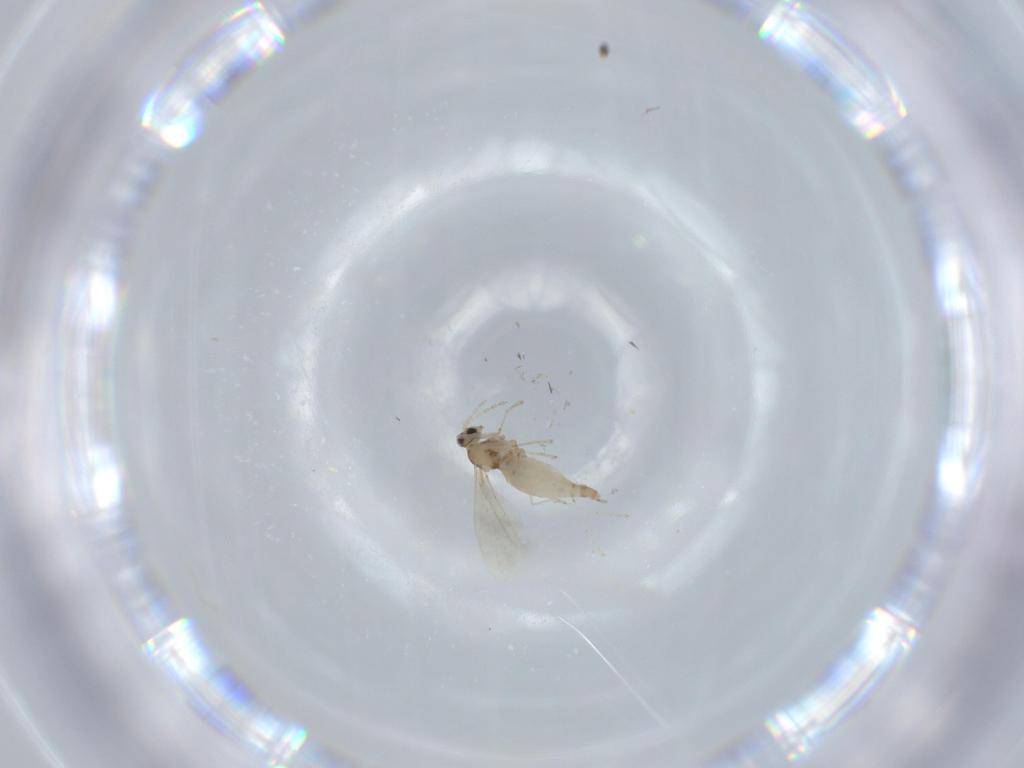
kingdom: Animalia
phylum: Arthropoda
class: Insecta
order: Diptera
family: Cecidomyiidae
